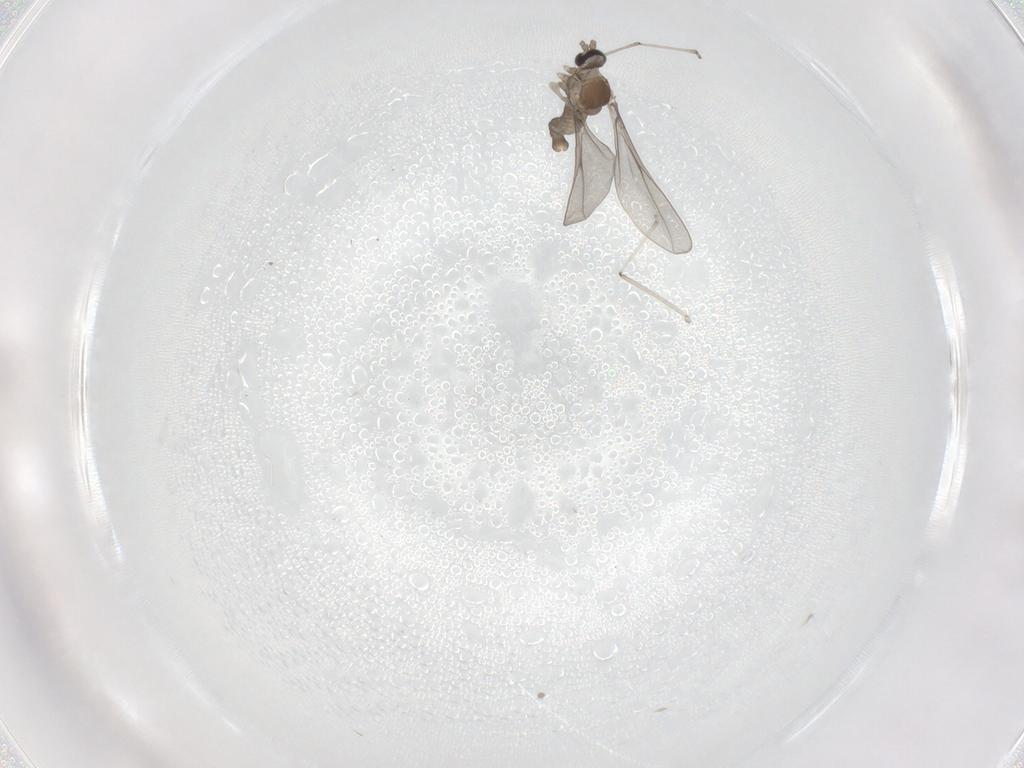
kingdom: Animalia
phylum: Arthropoda
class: Insecta
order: Diptera
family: Cecidomyiidae
